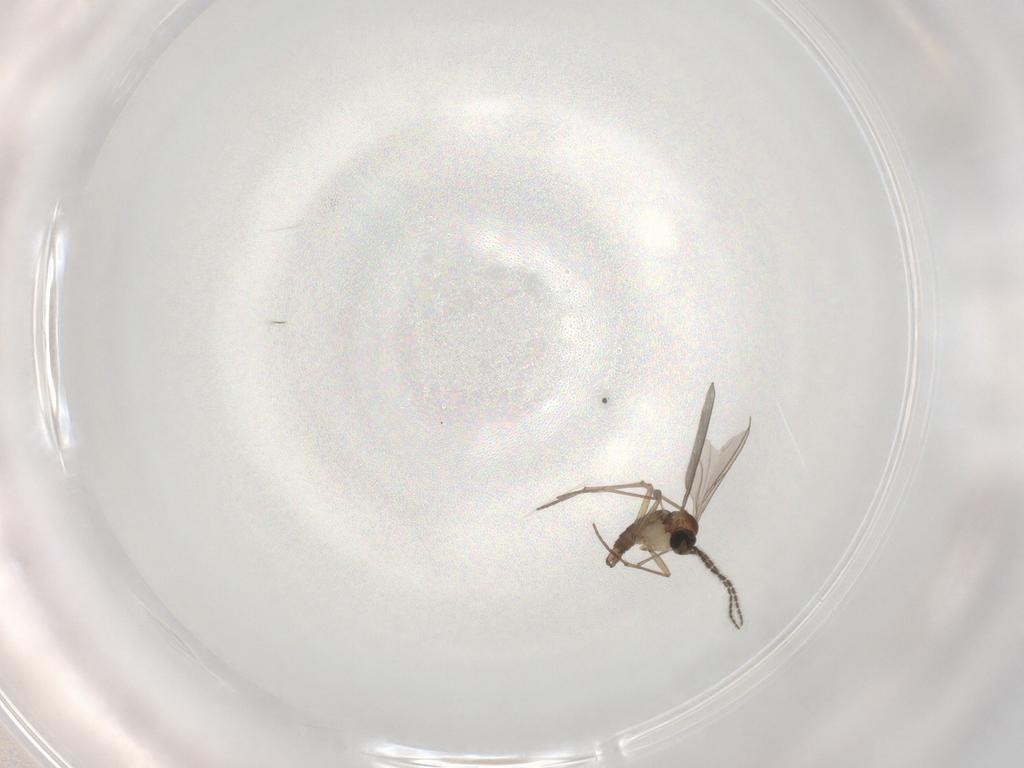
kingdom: Animalia
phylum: Arthropoda
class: Insecta
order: Diptera
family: Sciaridae
